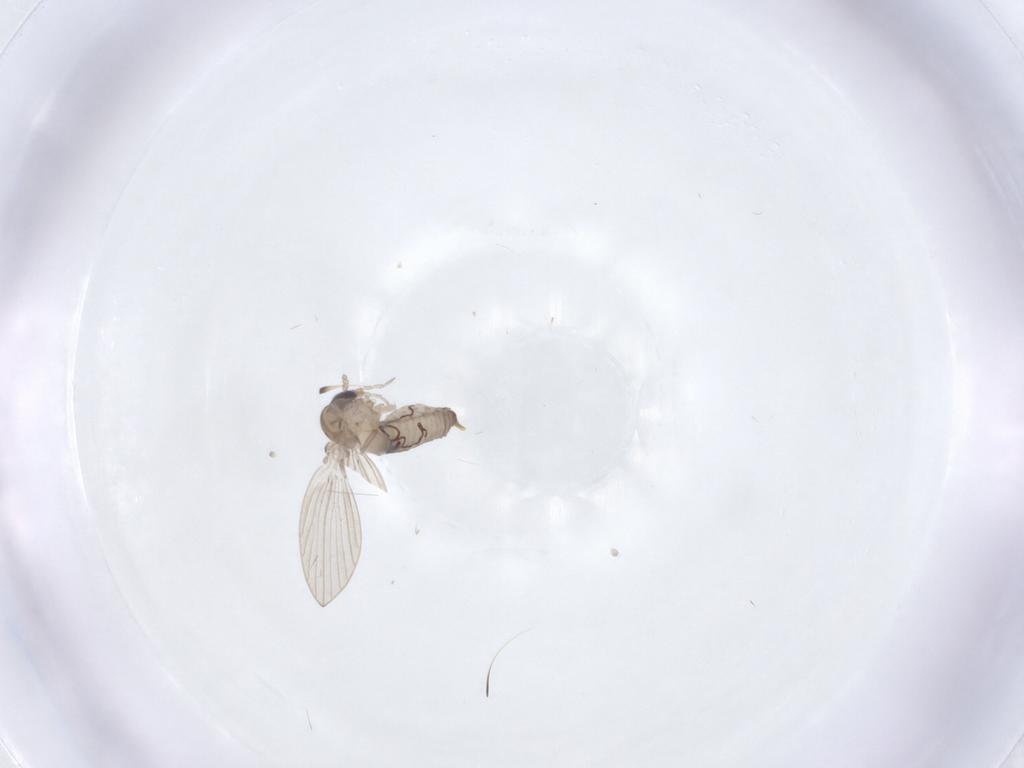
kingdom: Animalia
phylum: Arthropoda
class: Insecta
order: Diptera
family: Psychodidae
